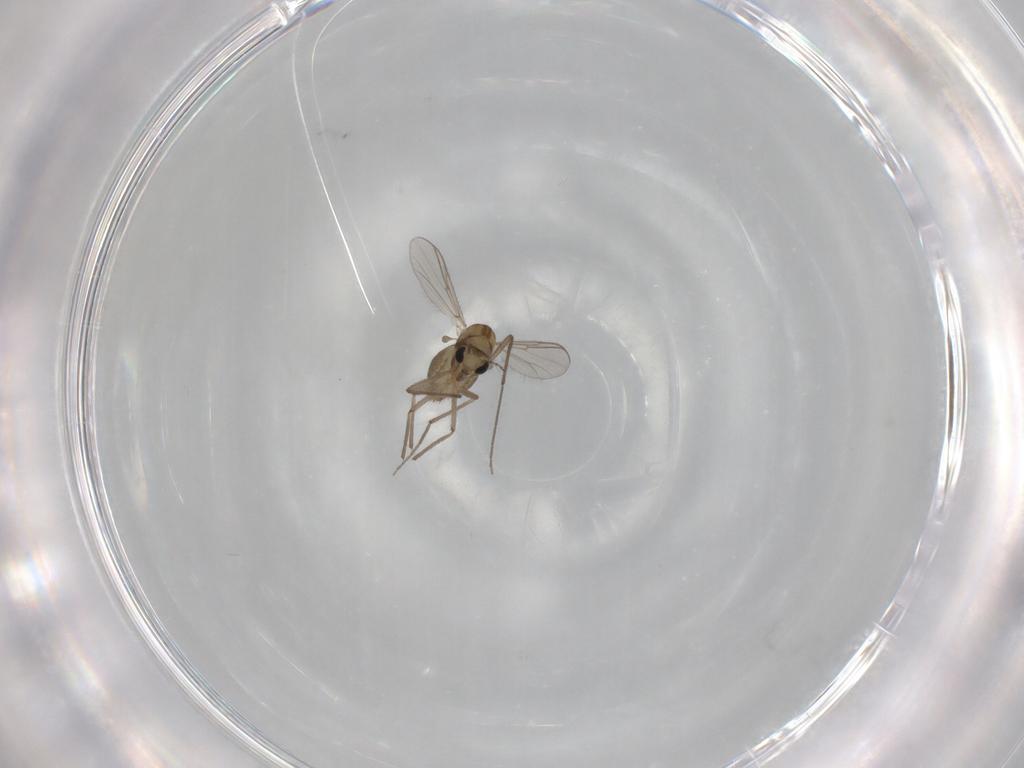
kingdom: Animalia
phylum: Arthropoda
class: Insecta
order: Diptera
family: Chironomidae
